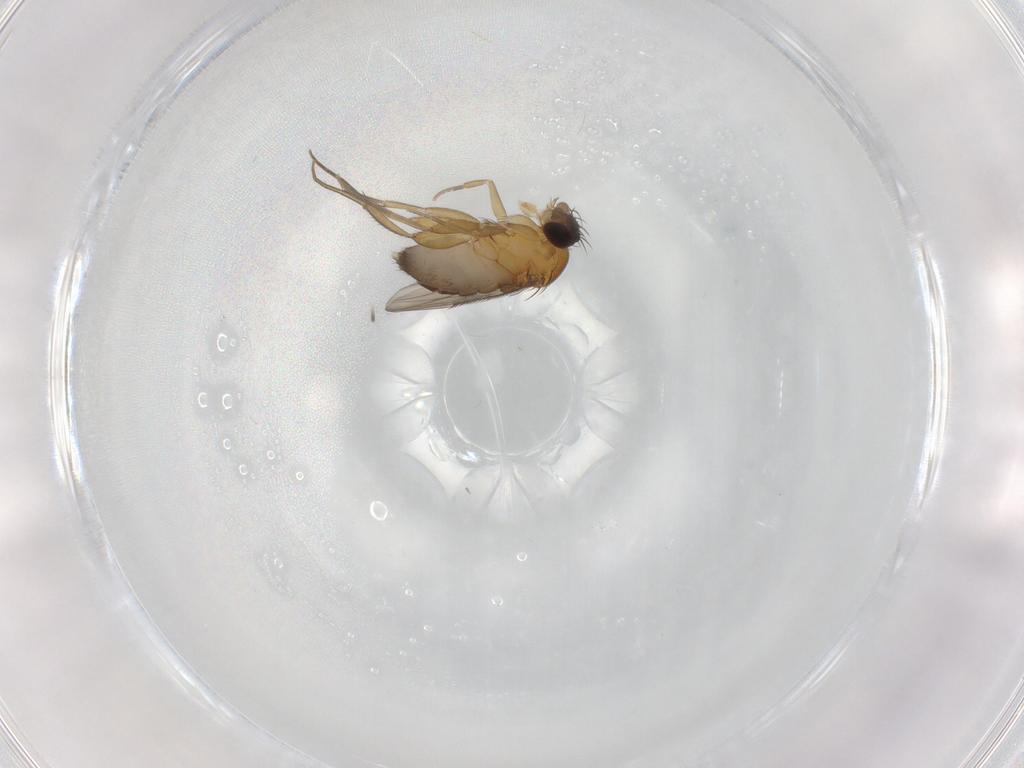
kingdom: Animalia
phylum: Arthropoda
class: Insecta
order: Diptera
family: Phoridae
